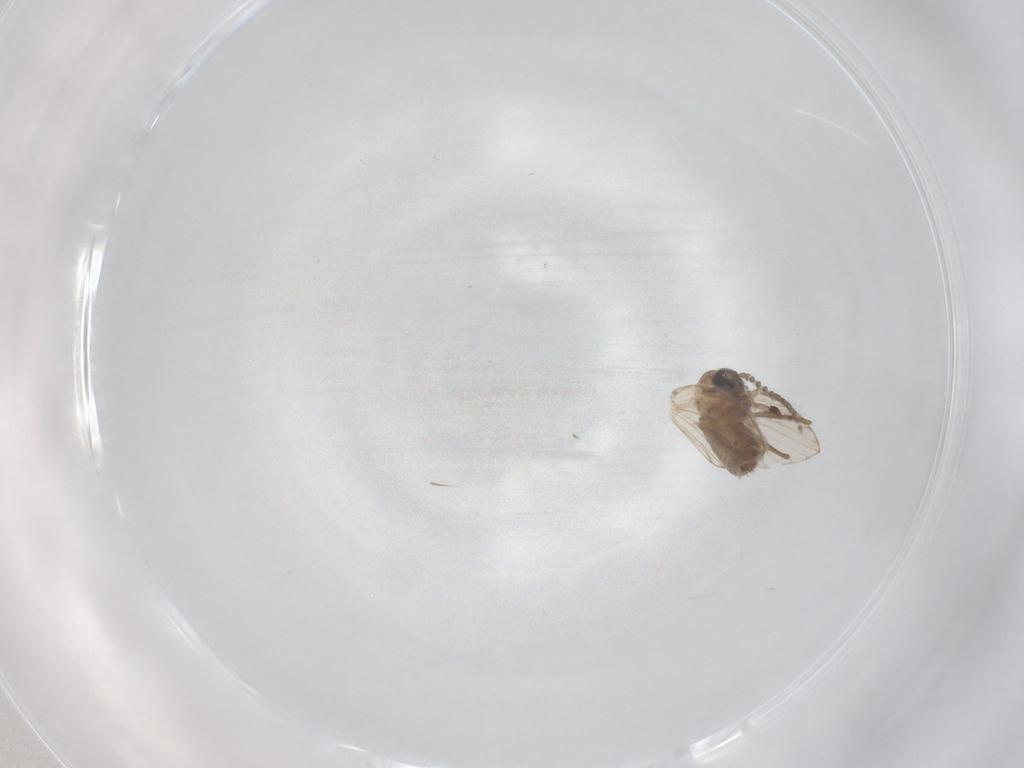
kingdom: Animalia
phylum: Arthropoda
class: Insecta
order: Diptera
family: Psychodidae
